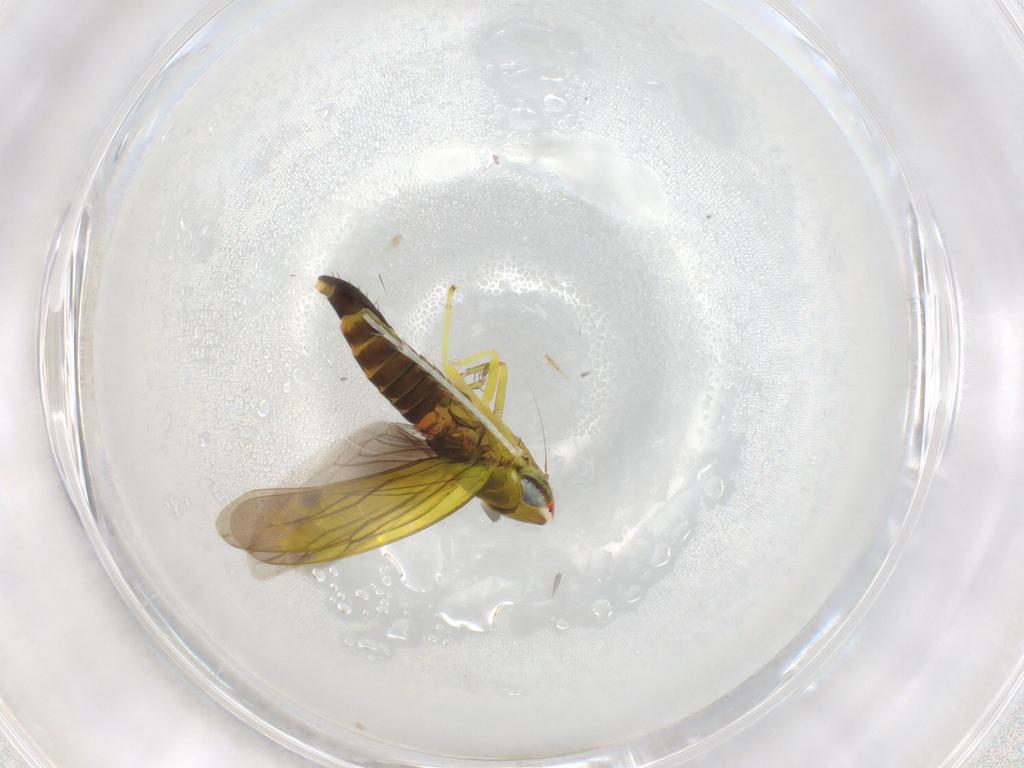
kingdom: Animalia
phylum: Arthropoda
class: Insecta
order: Hemiptera
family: Cicadellidae
